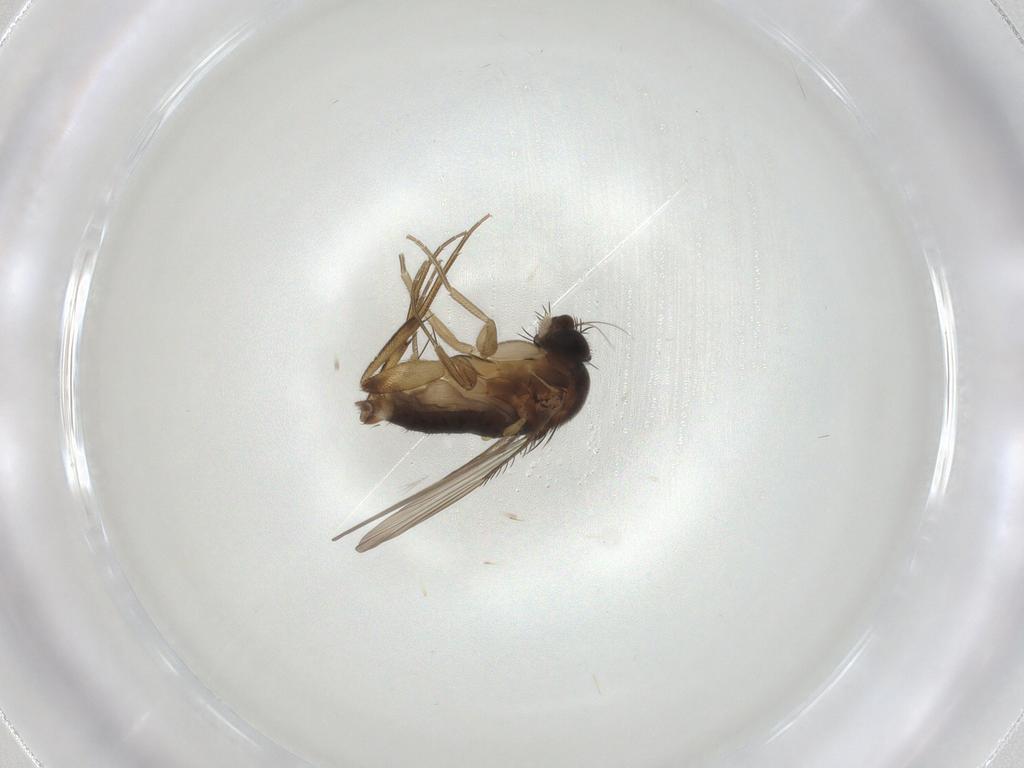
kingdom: Animalia
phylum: Arthropoda
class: Insecta
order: Diptera
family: Phoridae
